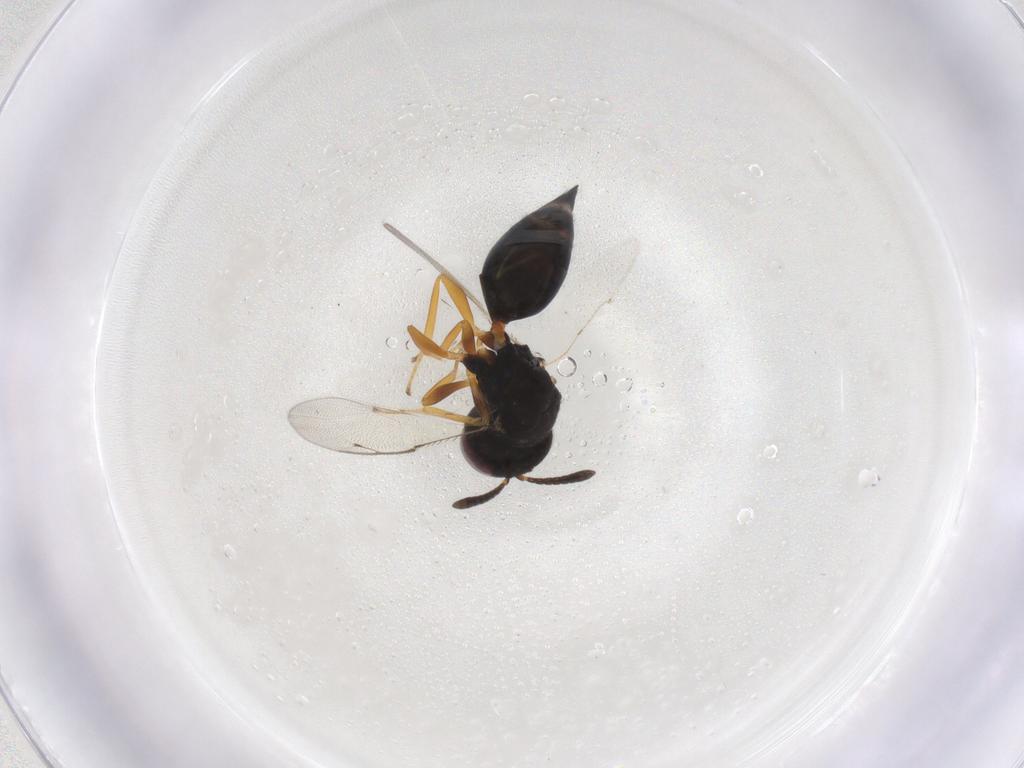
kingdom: Animalia
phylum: Arthropoda
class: Insecta
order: Hymenoptera
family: Pteromalidae
